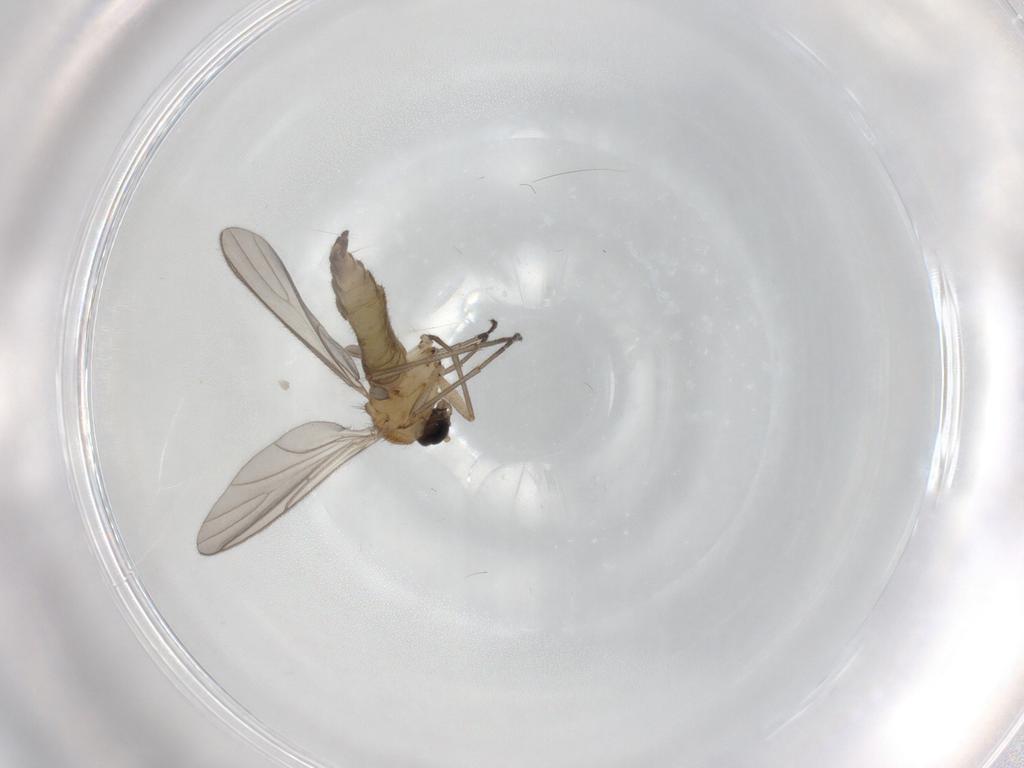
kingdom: Animalia
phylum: Arthropoda
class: Insecta
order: Diptera
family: Sciaridae
